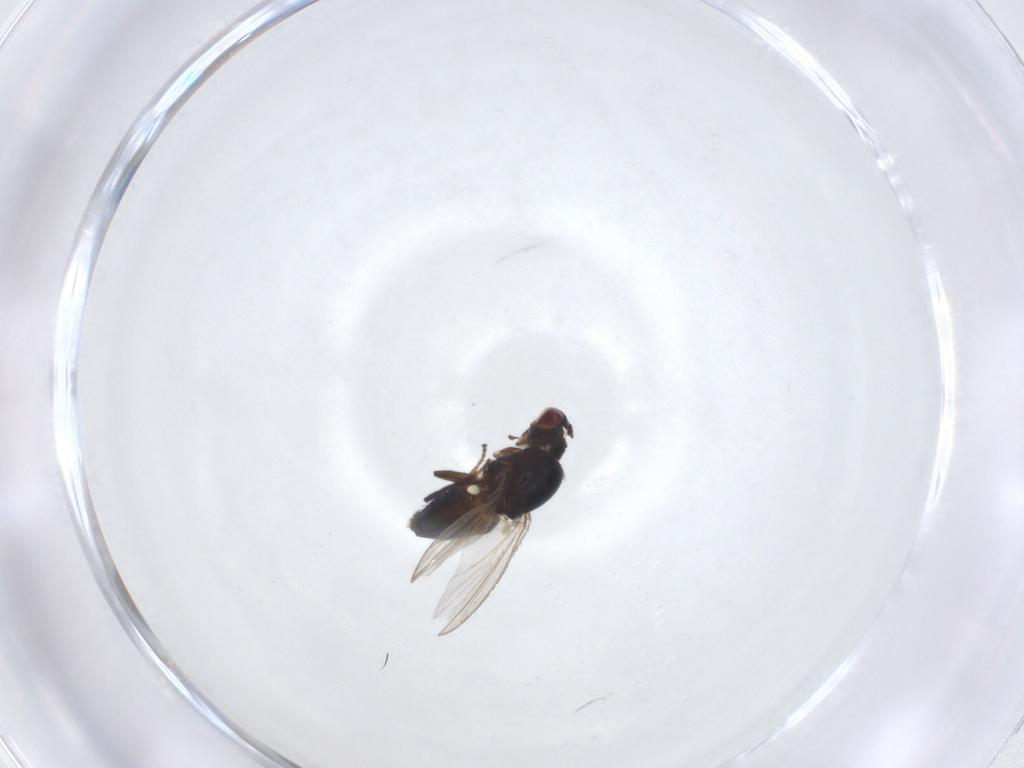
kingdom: Animalia
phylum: Arthropoda
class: Insecta
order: Diptera
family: Carnidae
